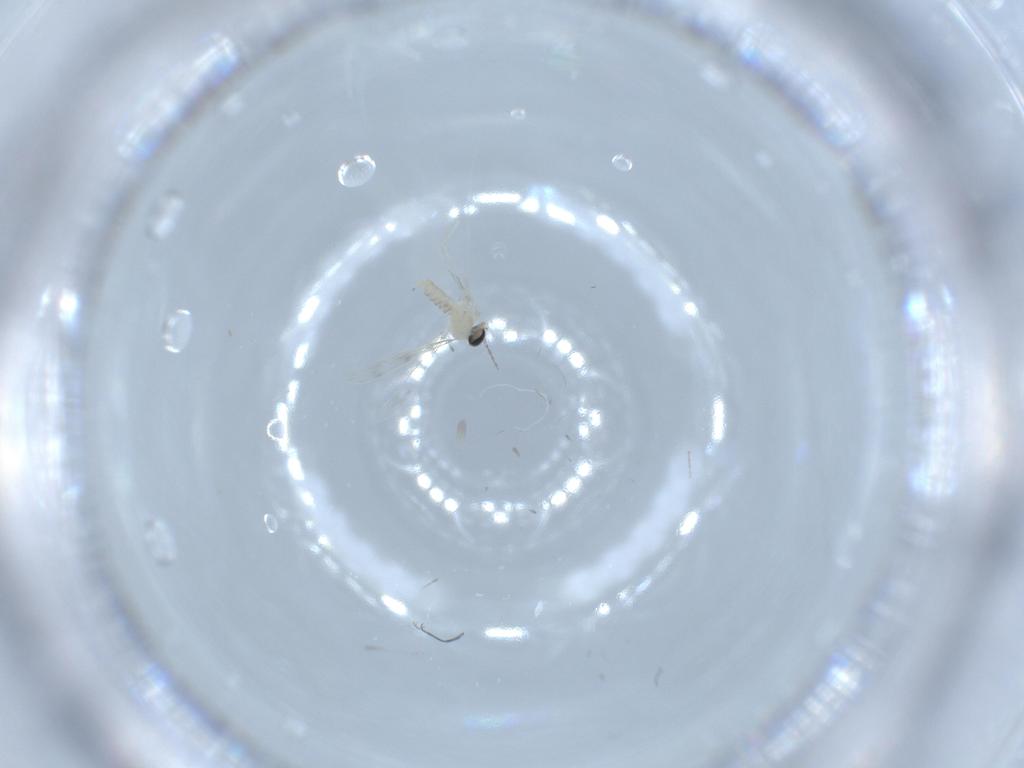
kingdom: Animalia
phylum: Arthropoda
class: Insecta
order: Diptera
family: Cecidomyiidae
